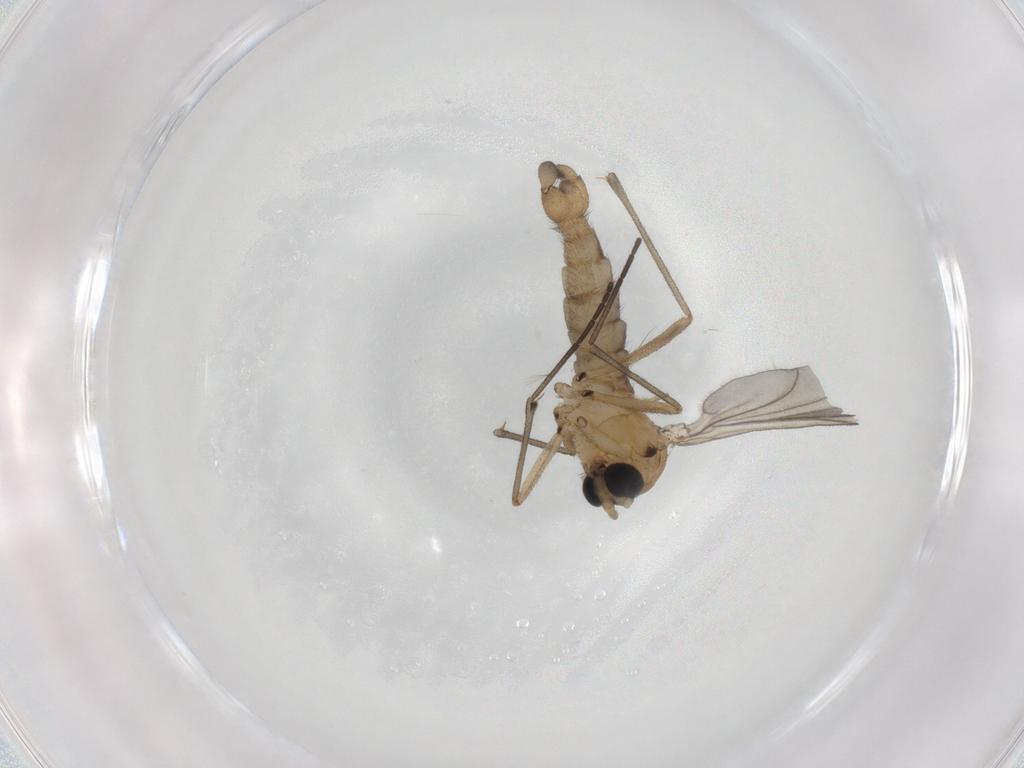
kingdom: Animalia
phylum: Arthropoda
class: Insecta
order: Diptera
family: Sciaridae
